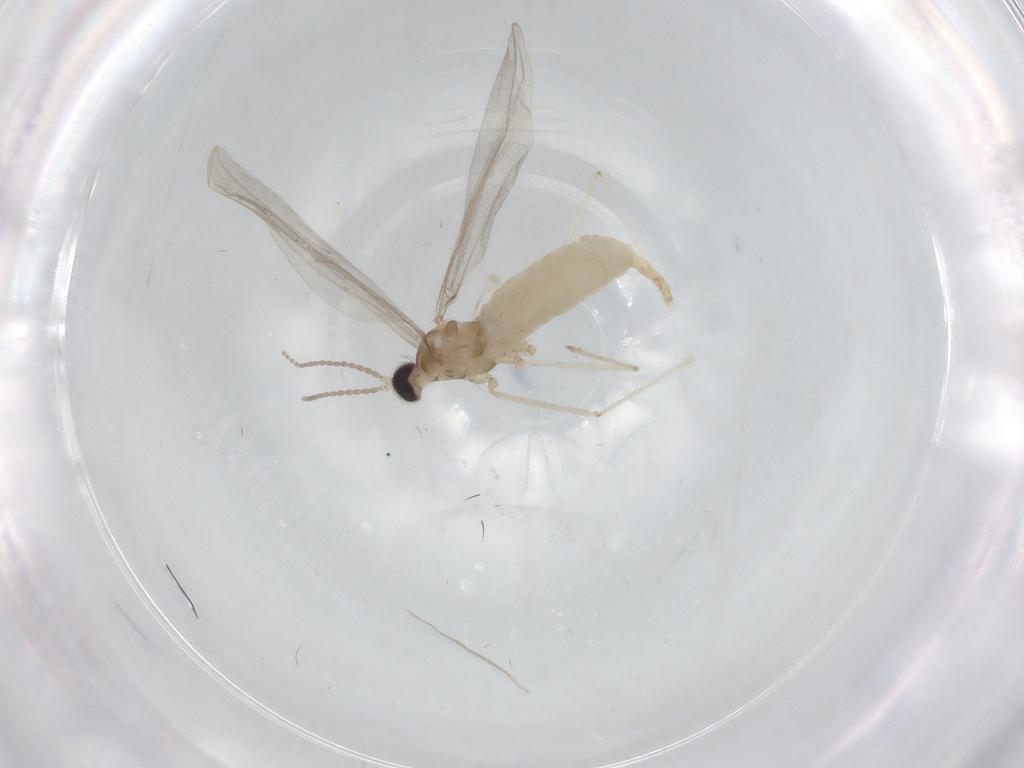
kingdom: Animalia
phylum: Arthropoda
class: Insecta
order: Diptera
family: Cecidomyiidae
